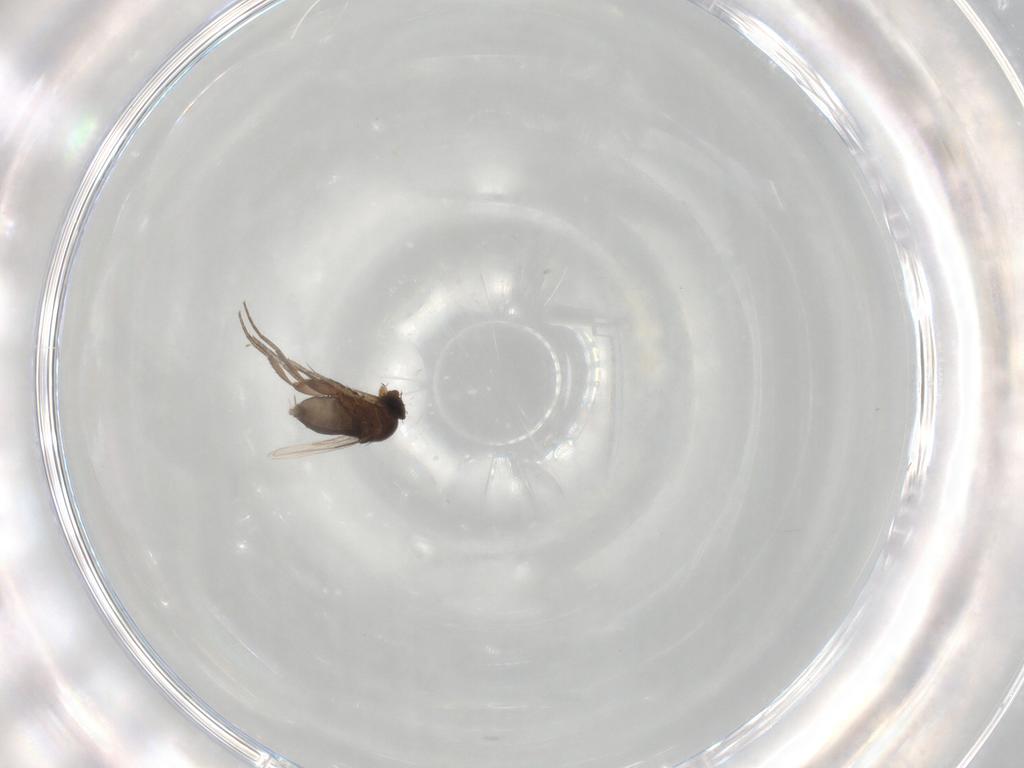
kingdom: Animalia
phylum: Arthropoda
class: Insecta
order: Diptera
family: Phoridae
